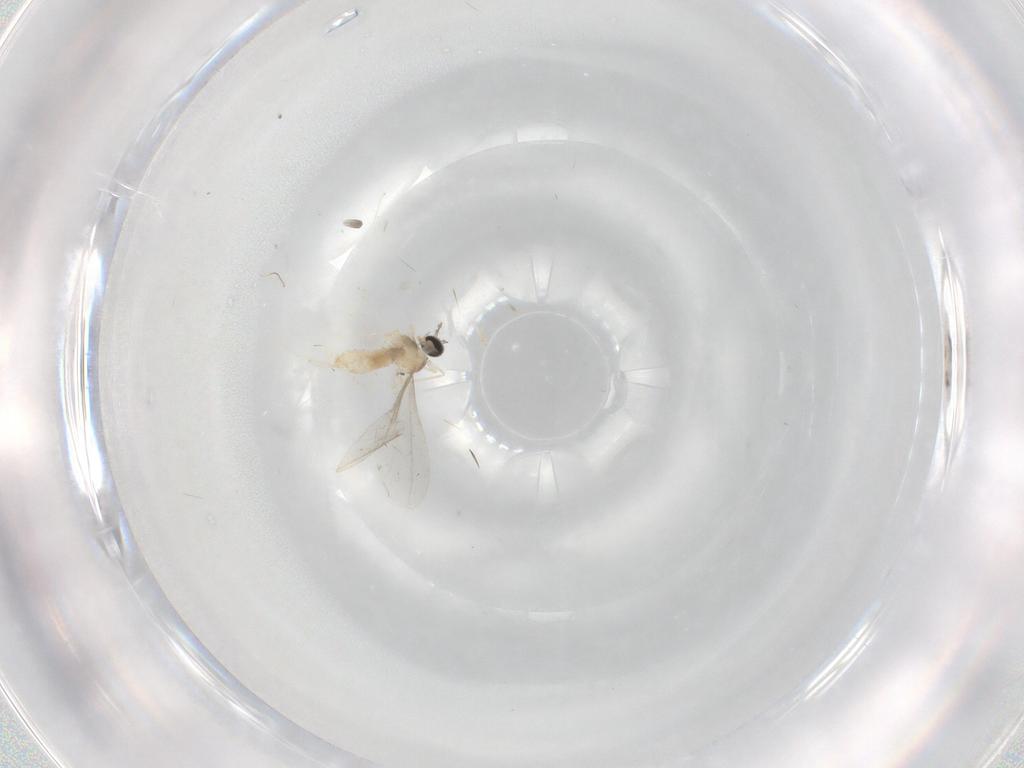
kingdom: Animalia
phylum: Arthropoda
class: Insecta
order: Diptera
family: Cecidomyiidae
